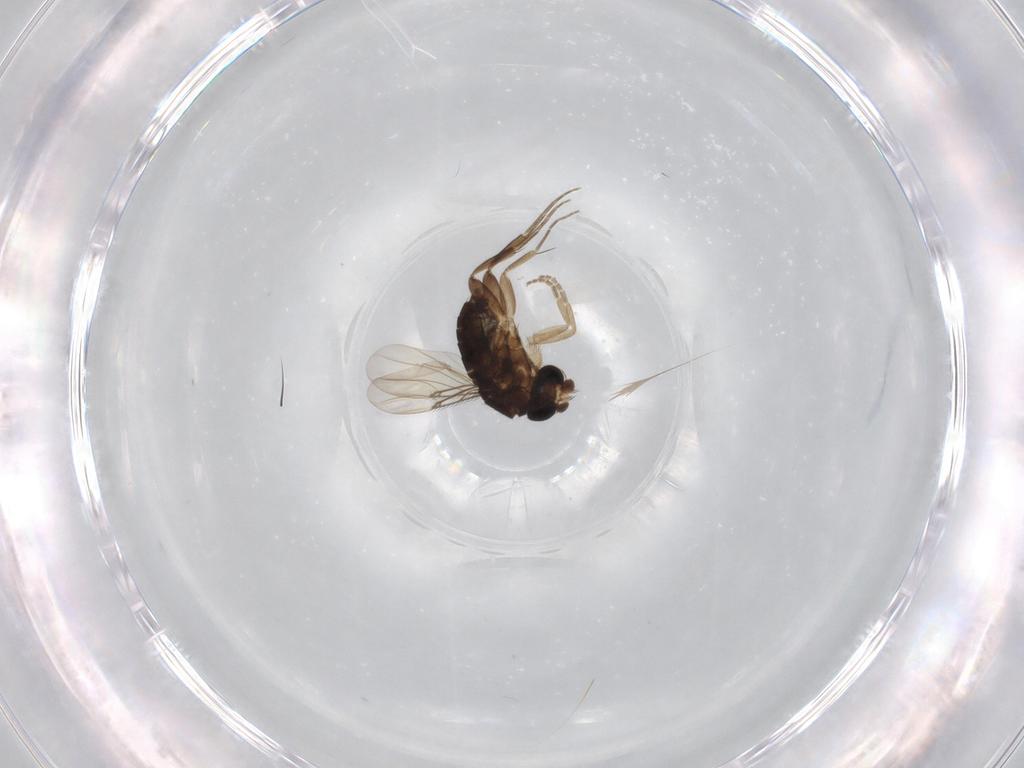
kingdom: Animalia
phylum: Arthropoda
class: Insecta
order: Diptera
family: Phoridae
